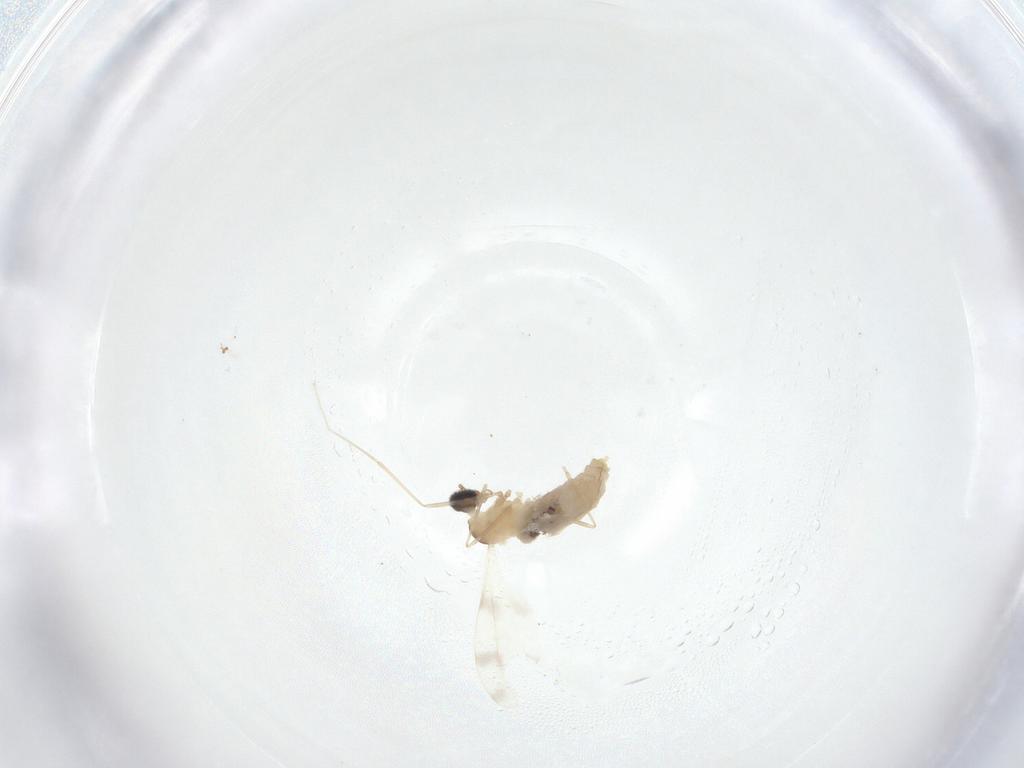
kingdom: Animalia
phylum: Arthropoda
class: Insecta
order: Diptera
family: Cecidomyiidae
